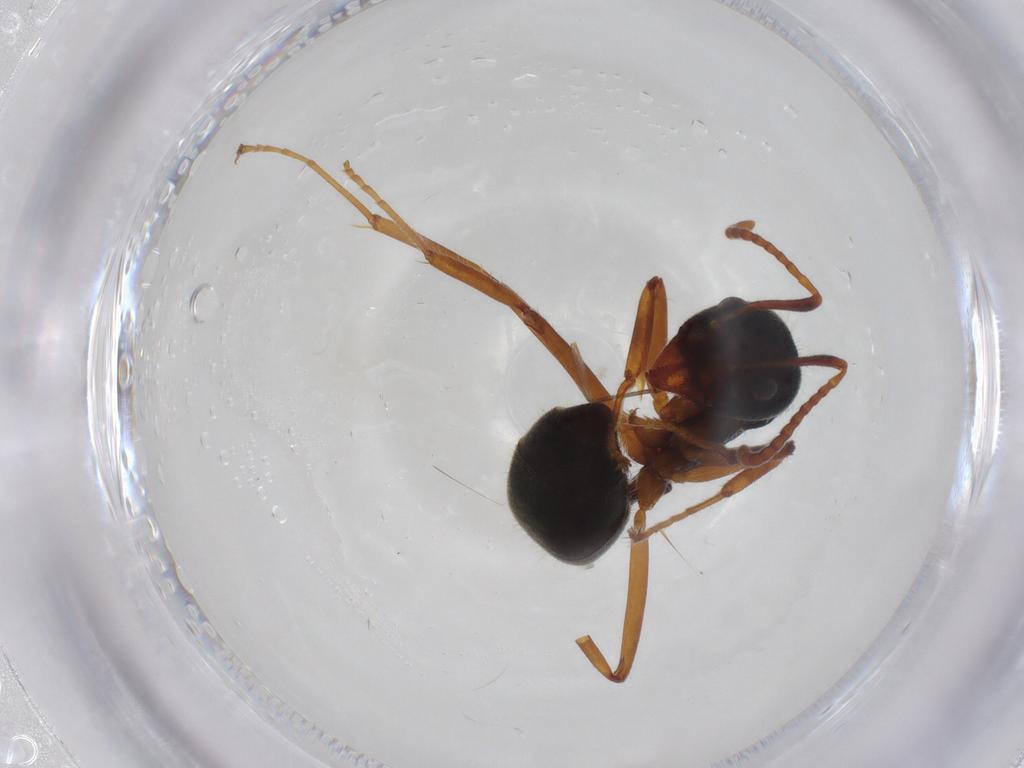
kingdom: Animalia
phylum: Arthropoda
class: Insecta
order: Hymenoptera
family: Formicidae
